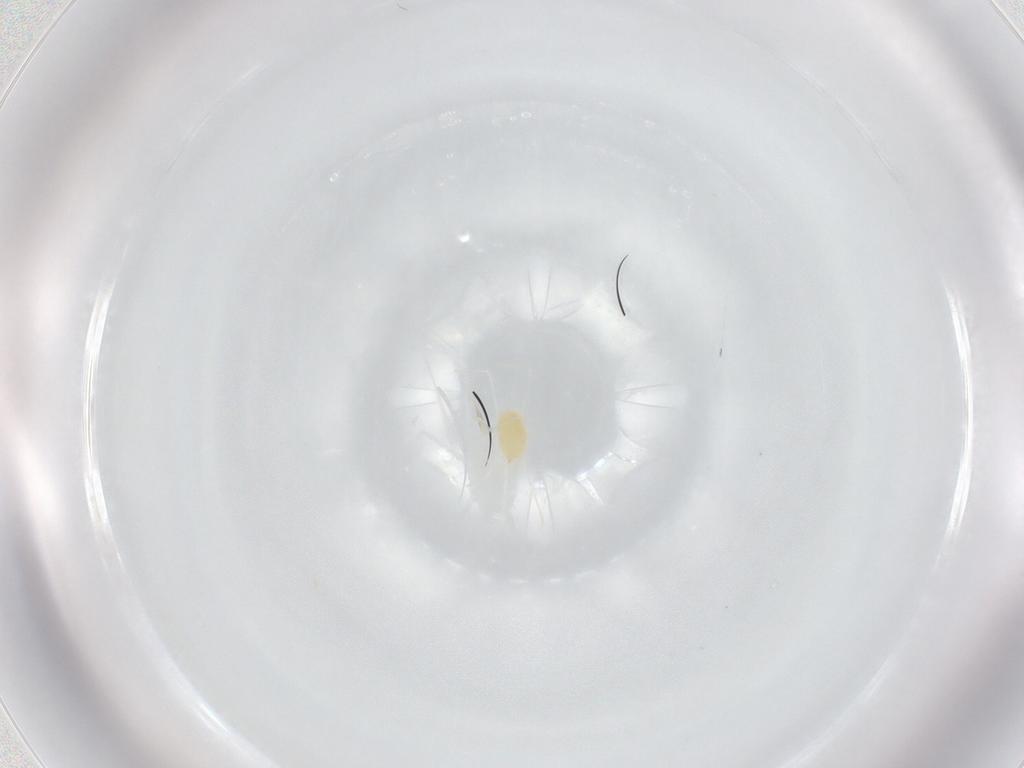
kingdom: Animalia
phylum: Arthropoda
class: Arachnida
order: Trombidiformes
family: Tetranychidae
